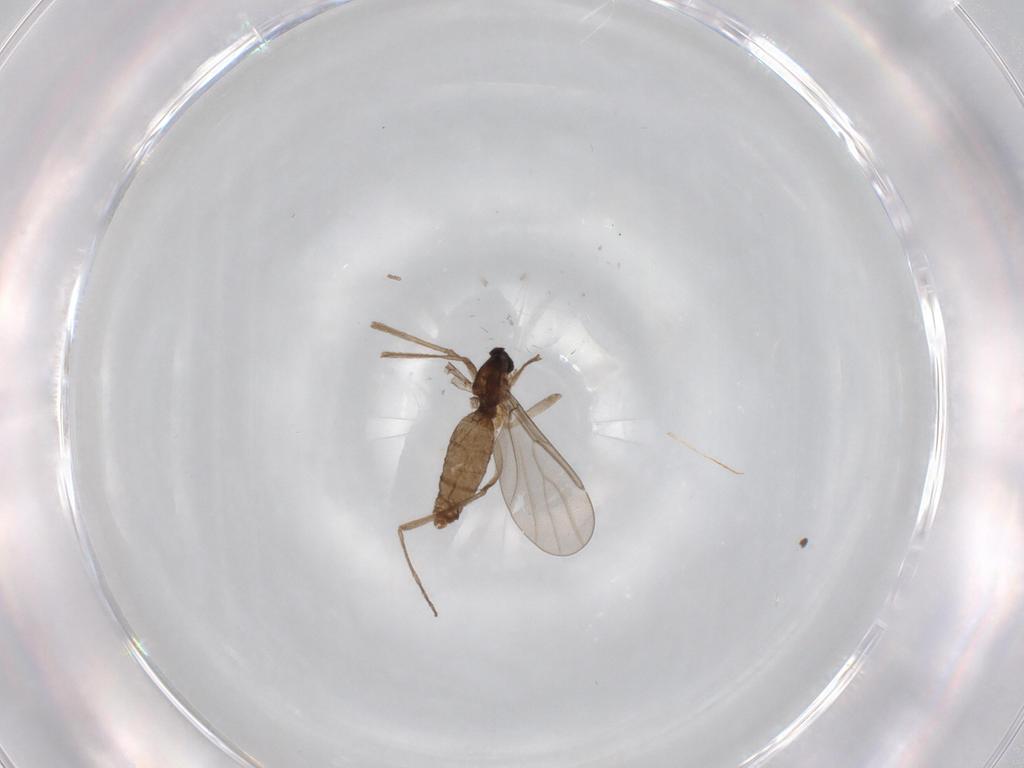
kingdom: Animalia
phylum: Arthropoda
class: Insecta
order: Diptera
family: Cecidomyiidae
